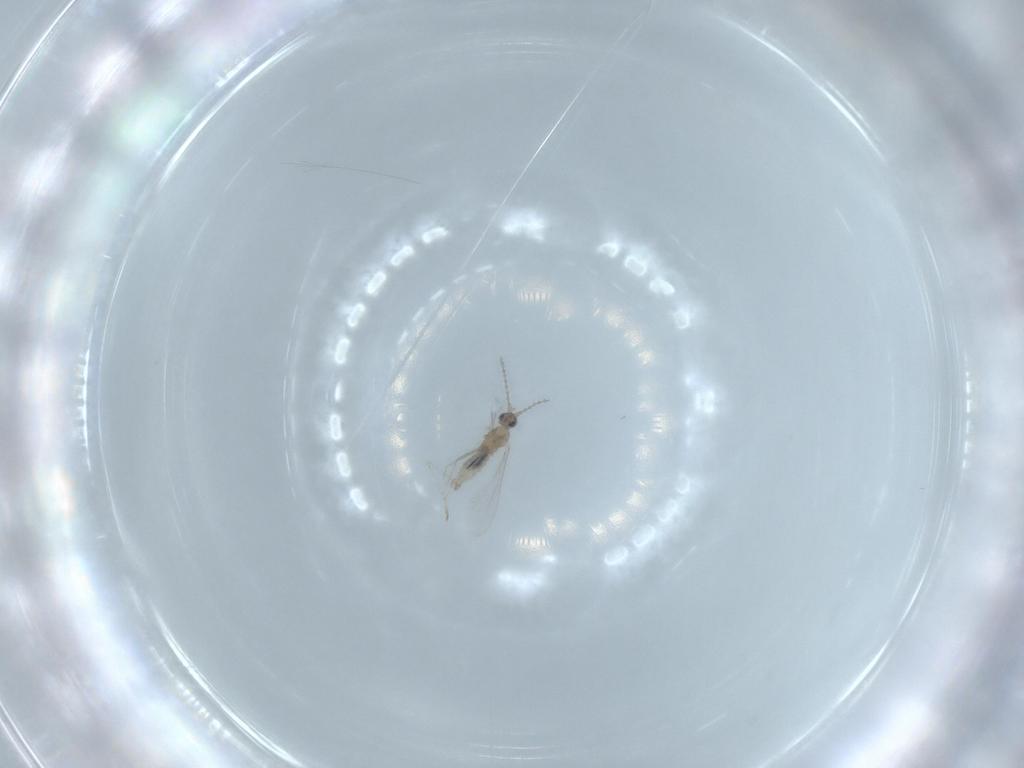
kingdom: Animalia
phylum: Arthropoda
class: Insecta
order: Diptera
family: Cecidomyiidae
